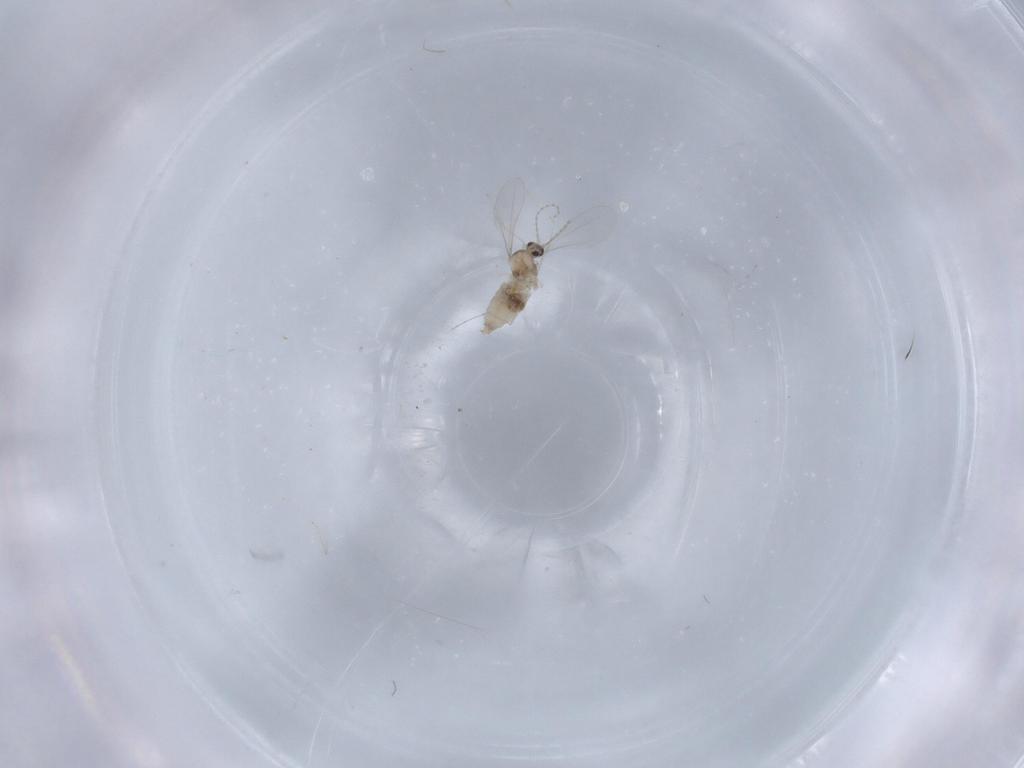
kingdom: Animalia
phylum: Arthropoda
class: Insecta
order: Diptera
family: Cecidomyiidae
